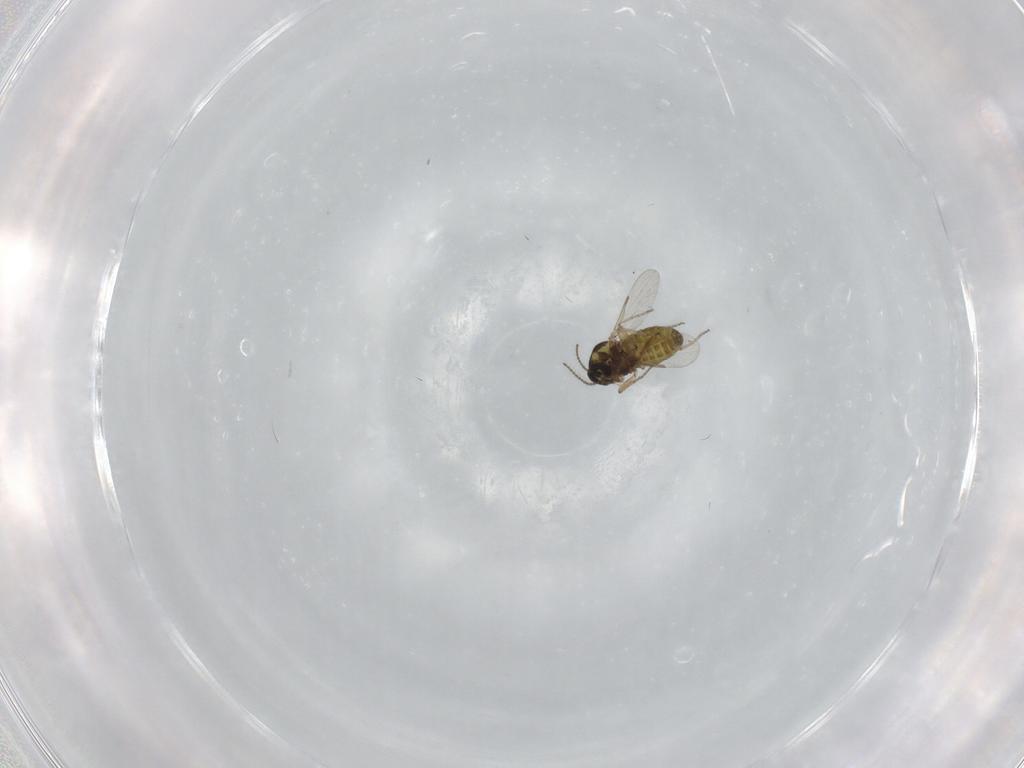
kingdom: Animalia
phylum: Arthropoda
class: Insecta
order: Diptera
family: Ceratopogonidae
